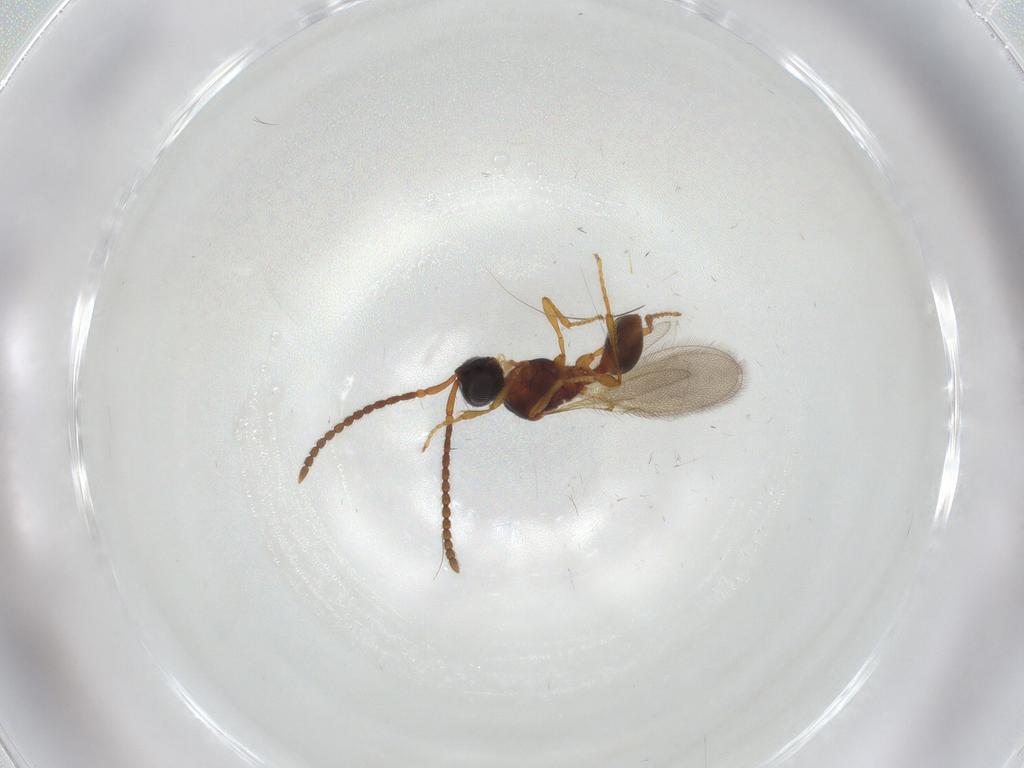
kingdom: Animalia
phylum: Arthropoda
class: Insecta
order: Hymenoptera
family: Diapriidae
